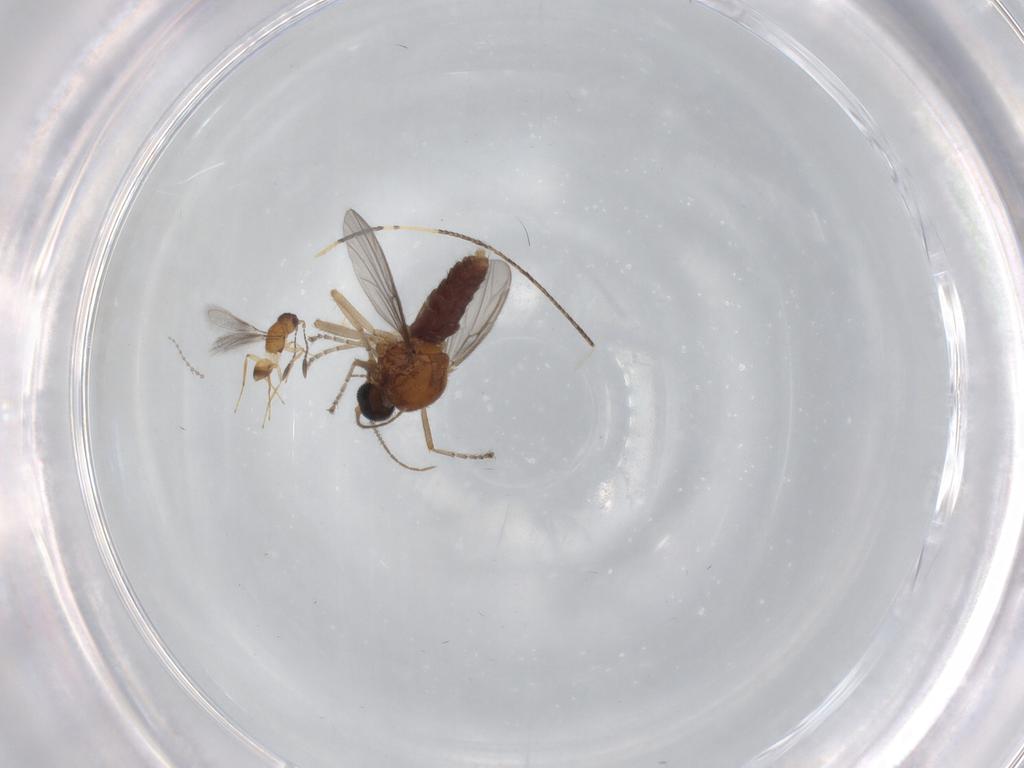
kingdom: Animalia
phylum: Arthropoda
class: Insecta
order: Diptera
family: Ceratopogonidae
